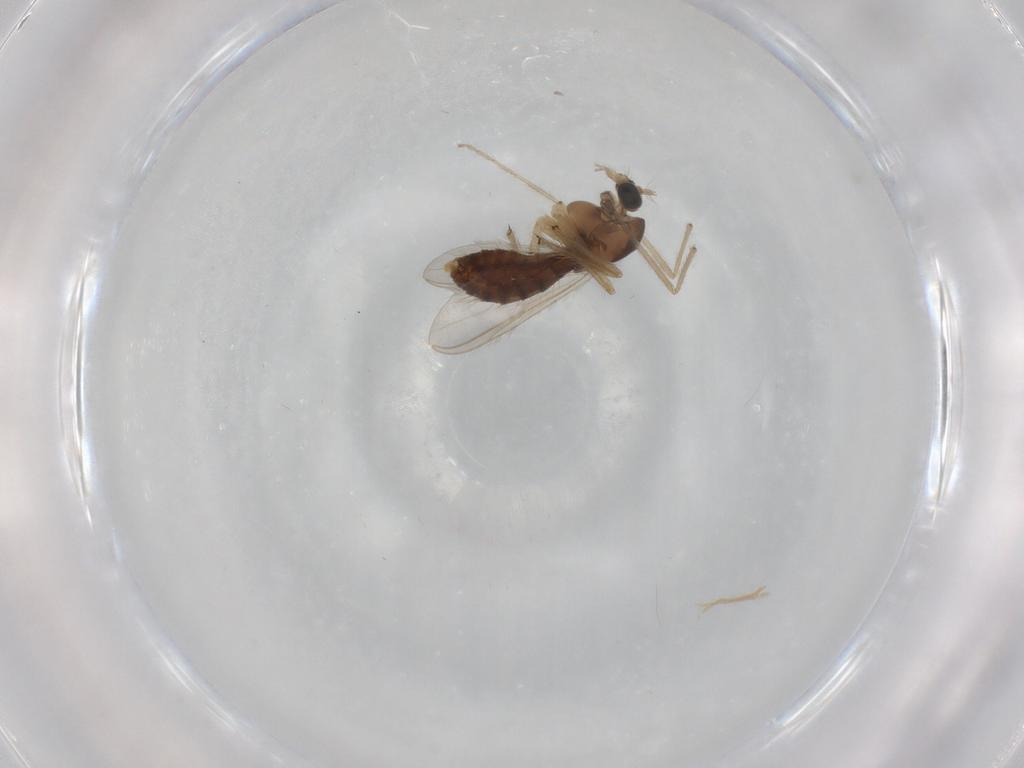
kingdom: Animalia
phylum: Arthropoda
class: Insecta
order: Diptera
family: Chironomidae
